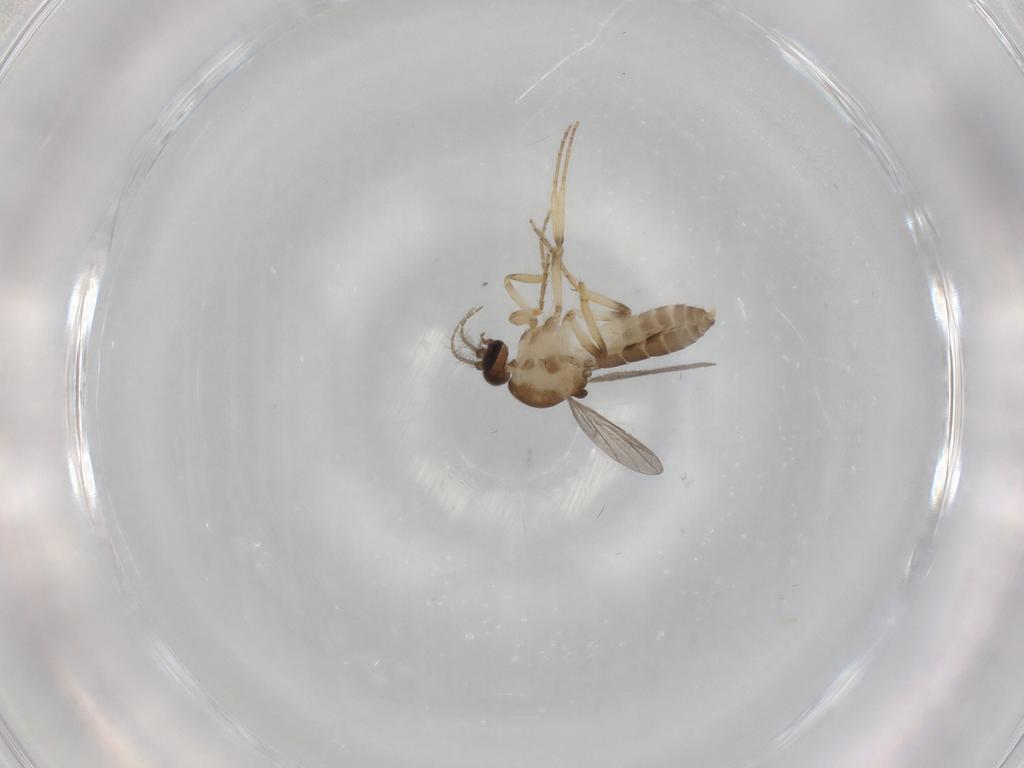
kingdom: Animalia
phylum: Arthropoda
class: Insecta
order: Diptera
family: Ceratopogonidae
